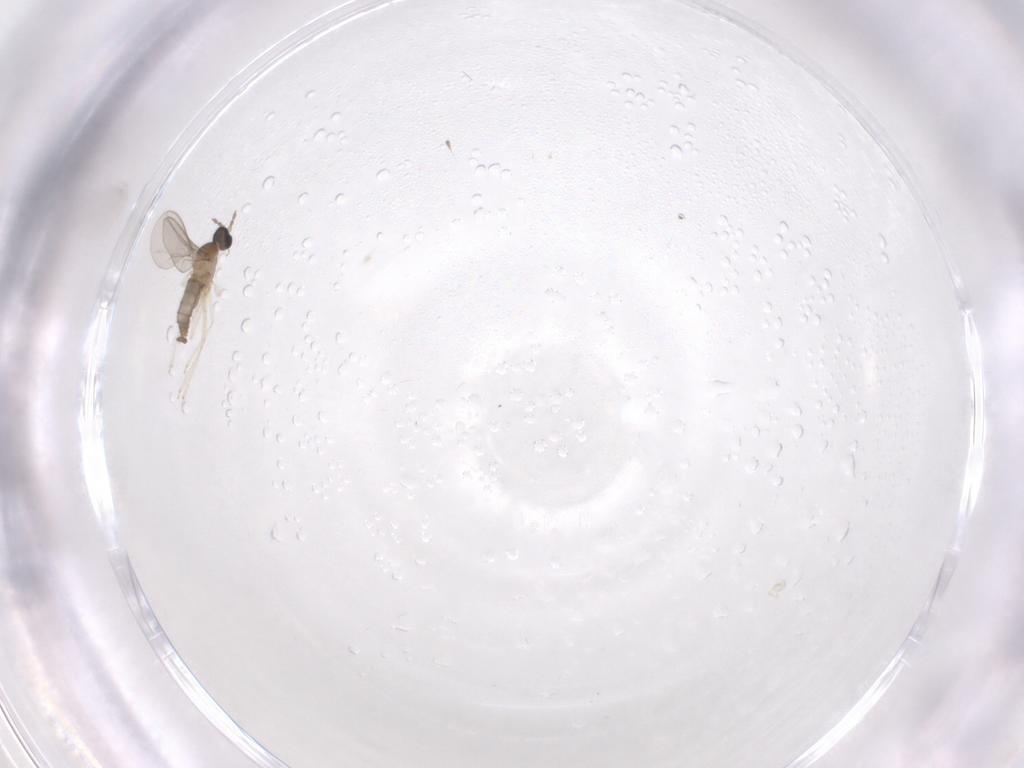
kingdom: Animalia
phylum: Arthropoda
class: Insecta
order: Diptera
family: Cecidomyiidae
